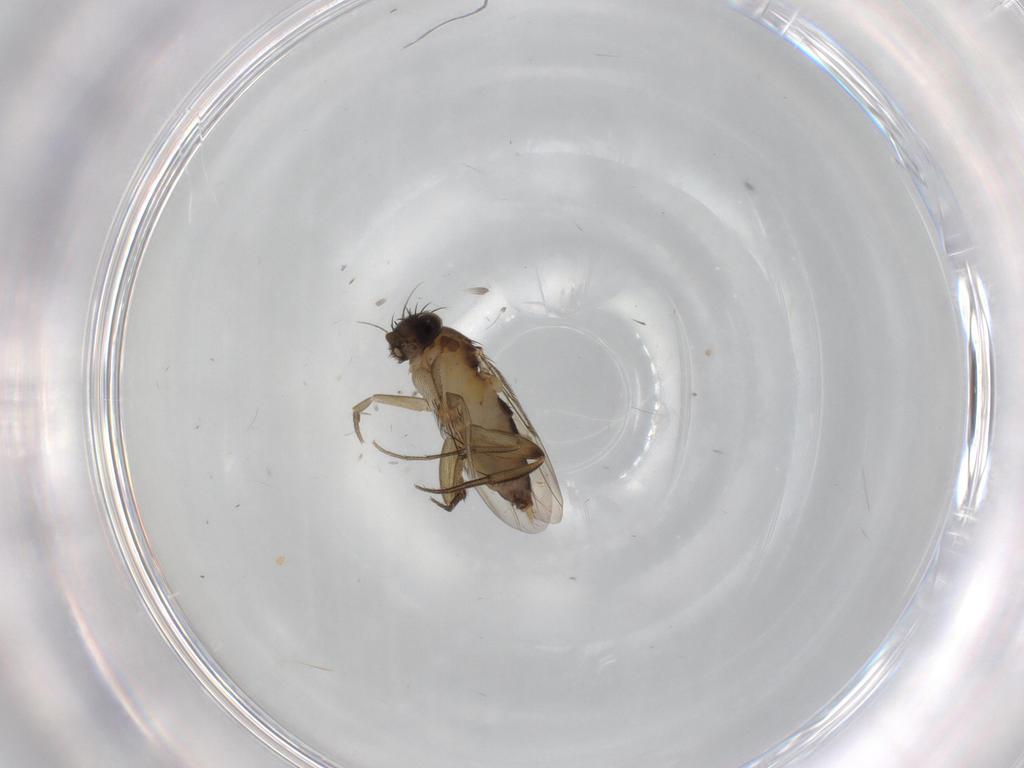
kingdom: Animalia
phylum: Arthropoda
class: Insecta
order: Diptera
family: Phoridae
